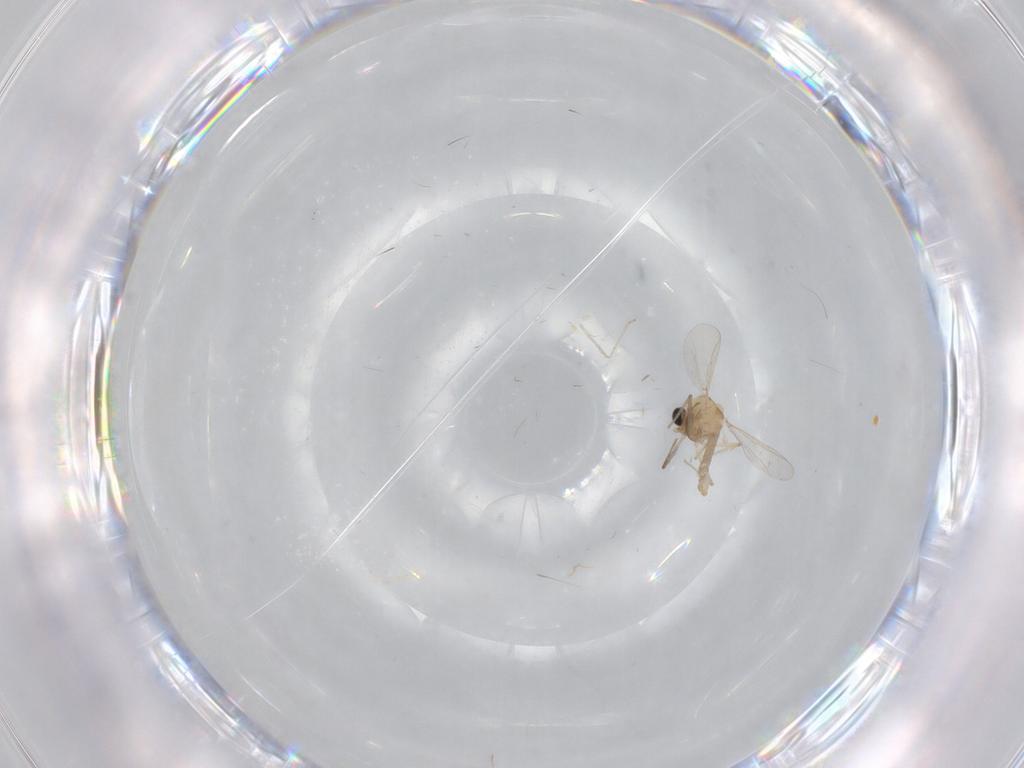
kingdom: Animalia
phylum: Arthropoda
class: Insecta
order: Diptera
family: Chironomidae
